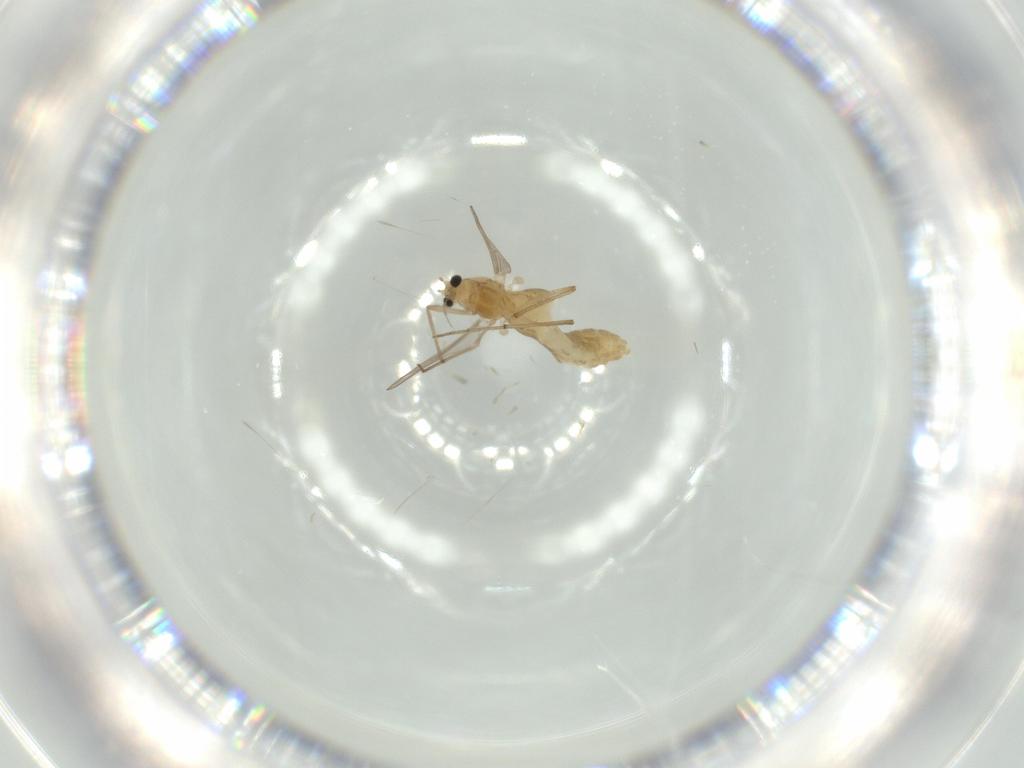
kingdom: Animalia
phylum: Arthropoda
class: Insecta
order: Diptera
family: Chironomidae
